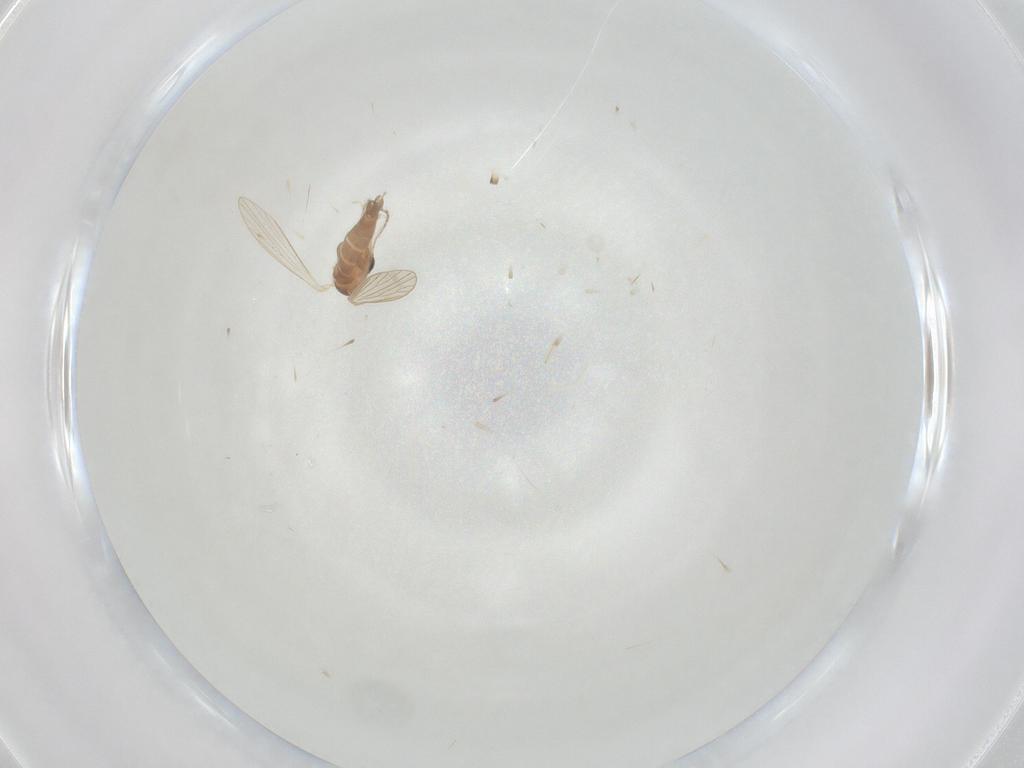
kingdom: Animalia
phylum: Arthropoda
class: Insecta
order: Diptera
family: Psychodidae
